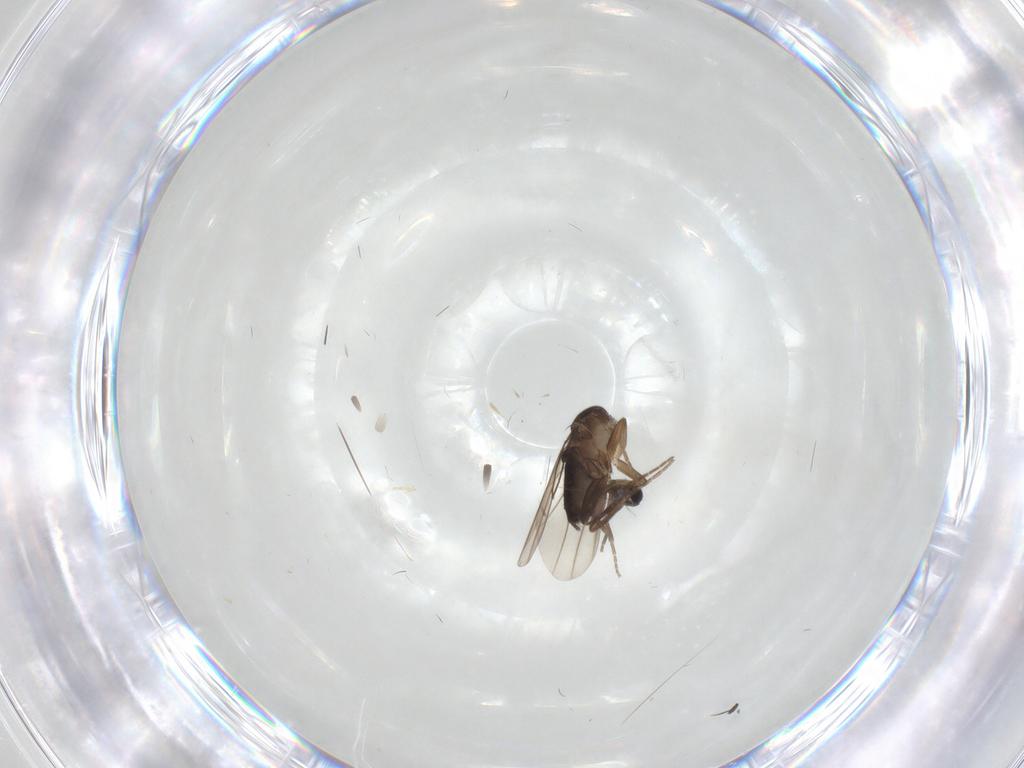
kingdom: Animalia
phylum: Arthropoda
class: Insecta
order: Diptera
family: Phoridae
